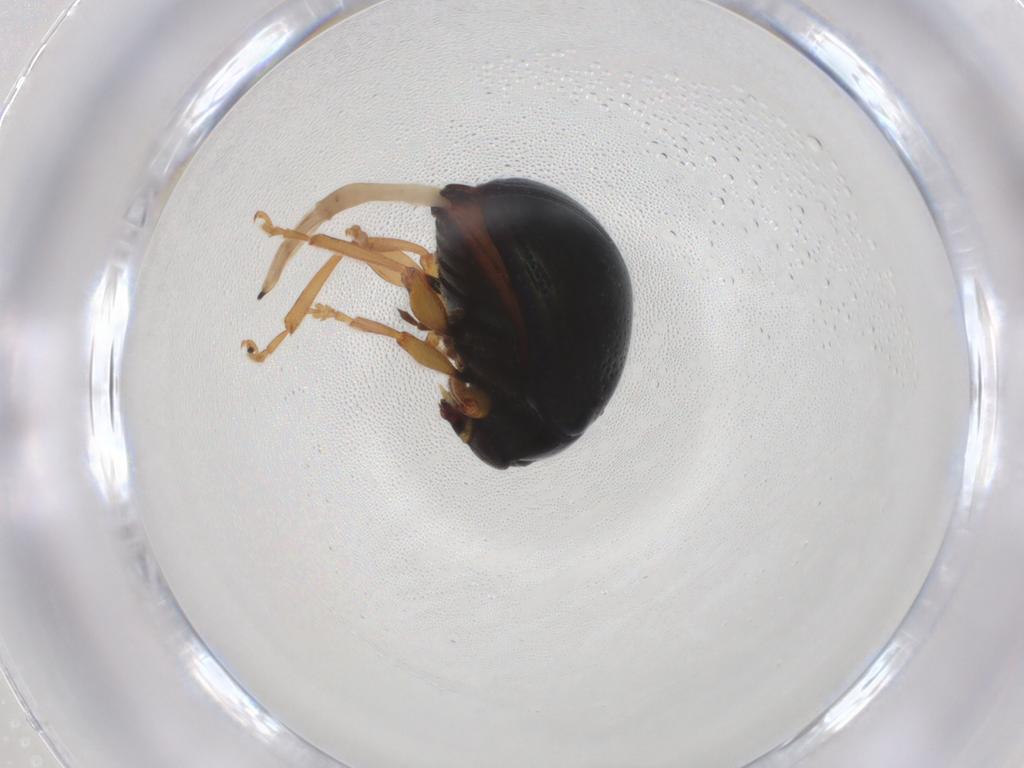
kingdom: Animalia
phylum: Arthropoda
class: Insecta
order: Coleoptera
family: Chrysomelidae
